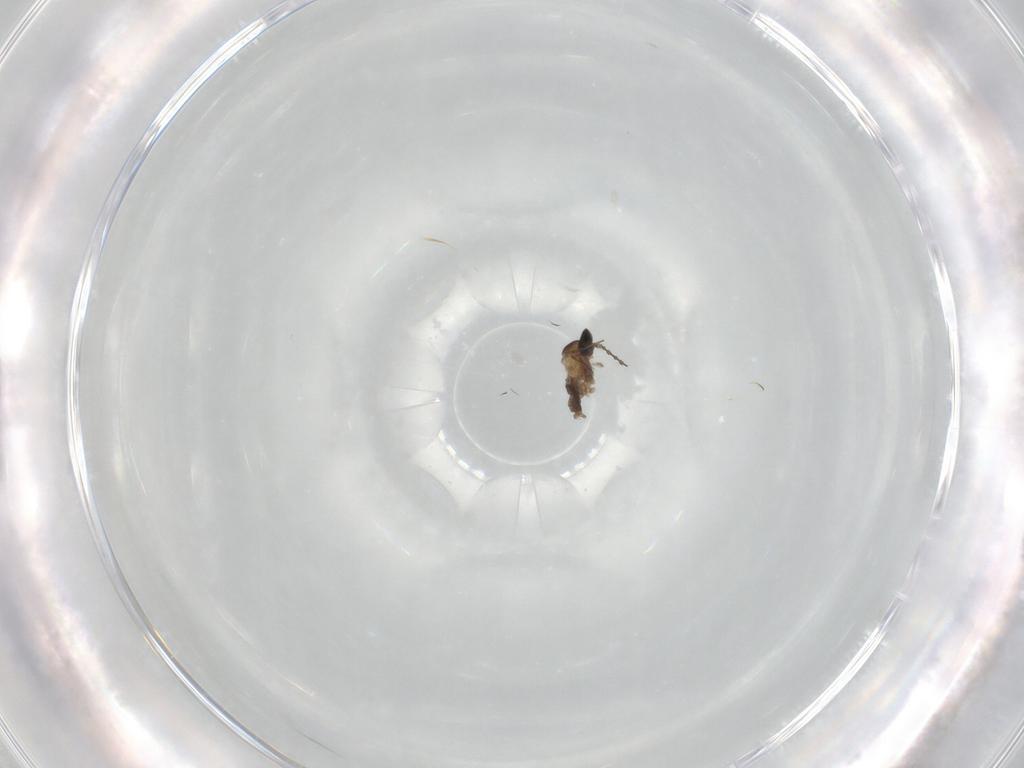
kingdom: Animalia
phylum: Arthropoda
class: Insecta
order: Diptera
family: Cecidomyiidae
